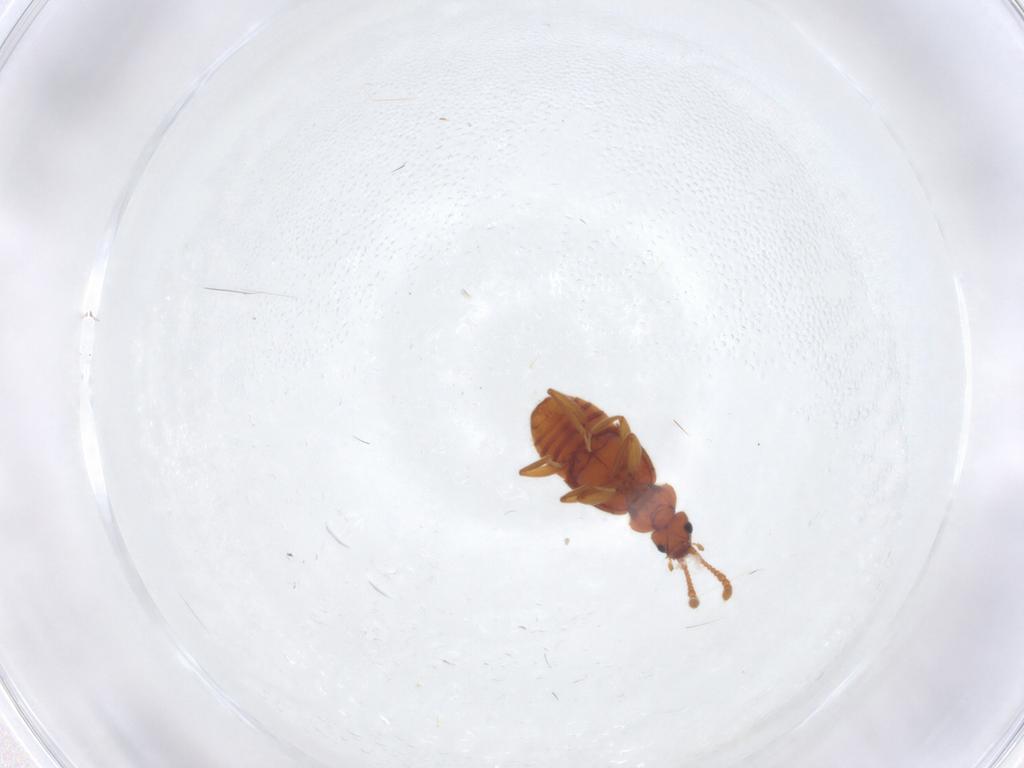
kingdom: Animalia
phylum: Arthropoda
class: Insecta
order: Coleoptera
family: Staphylinidae
